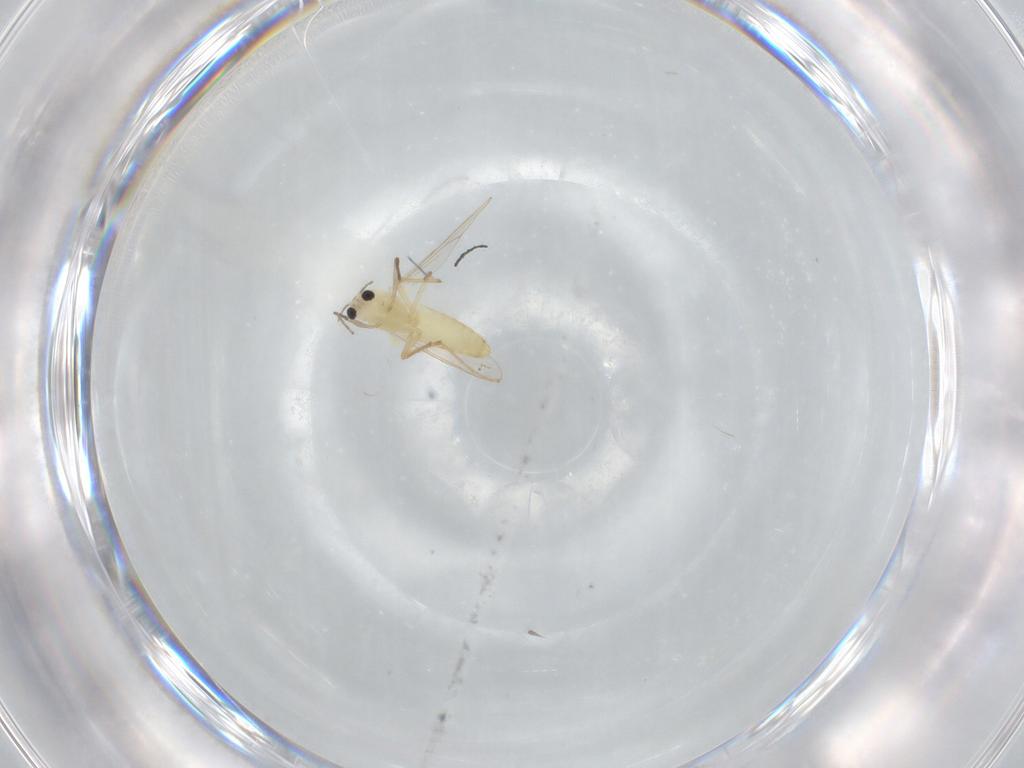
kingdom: Animalia
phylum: Arthropoda
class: Insecta
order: Diptera
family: Chironomidae
